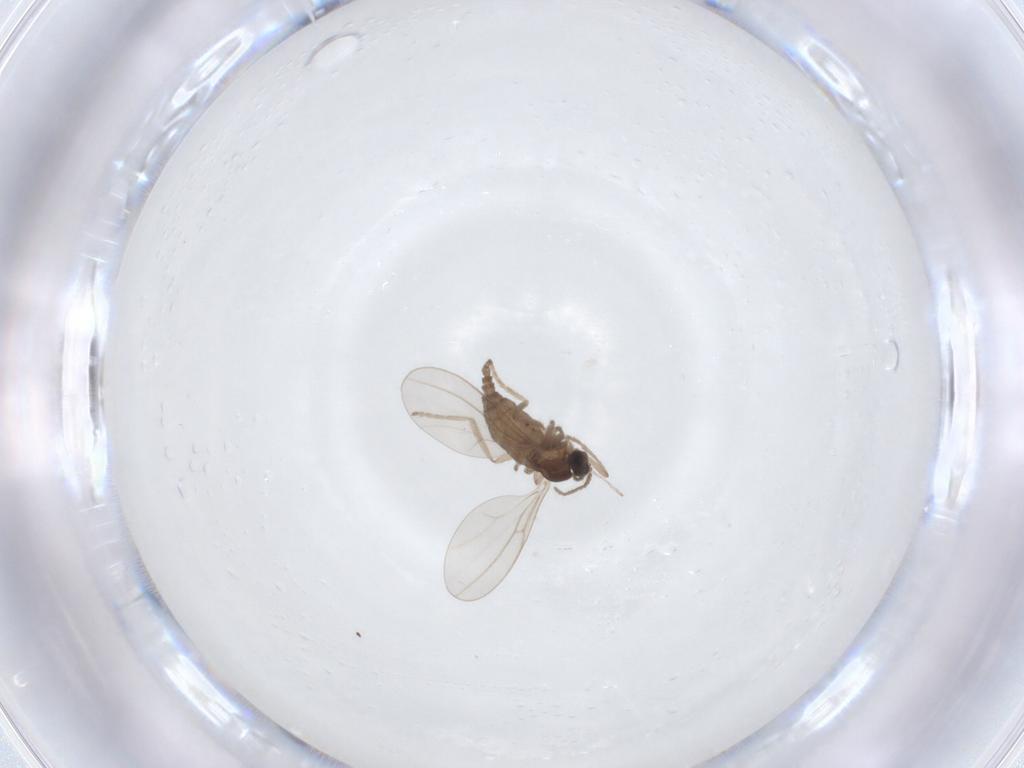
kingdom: Animalia
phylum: Arthropoda
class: Insecta
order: Diptera
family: Cecidomyiidae
